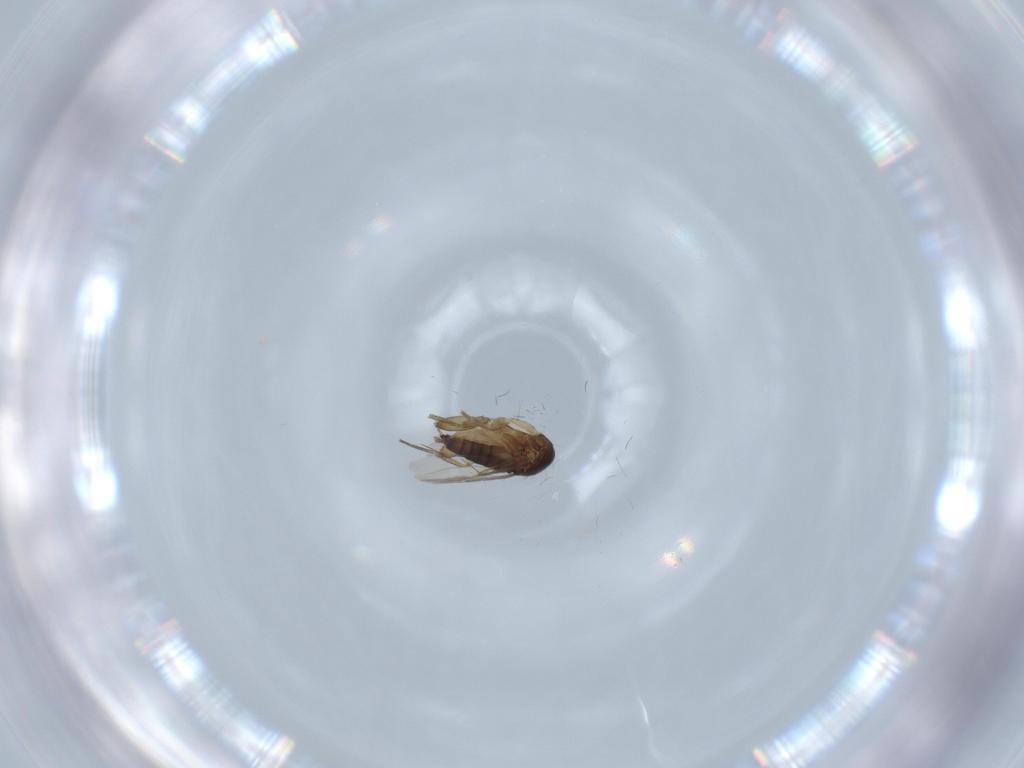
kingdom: Animalia
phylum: Arthropoda
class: Insecta
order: Diptera
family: Phoridae
